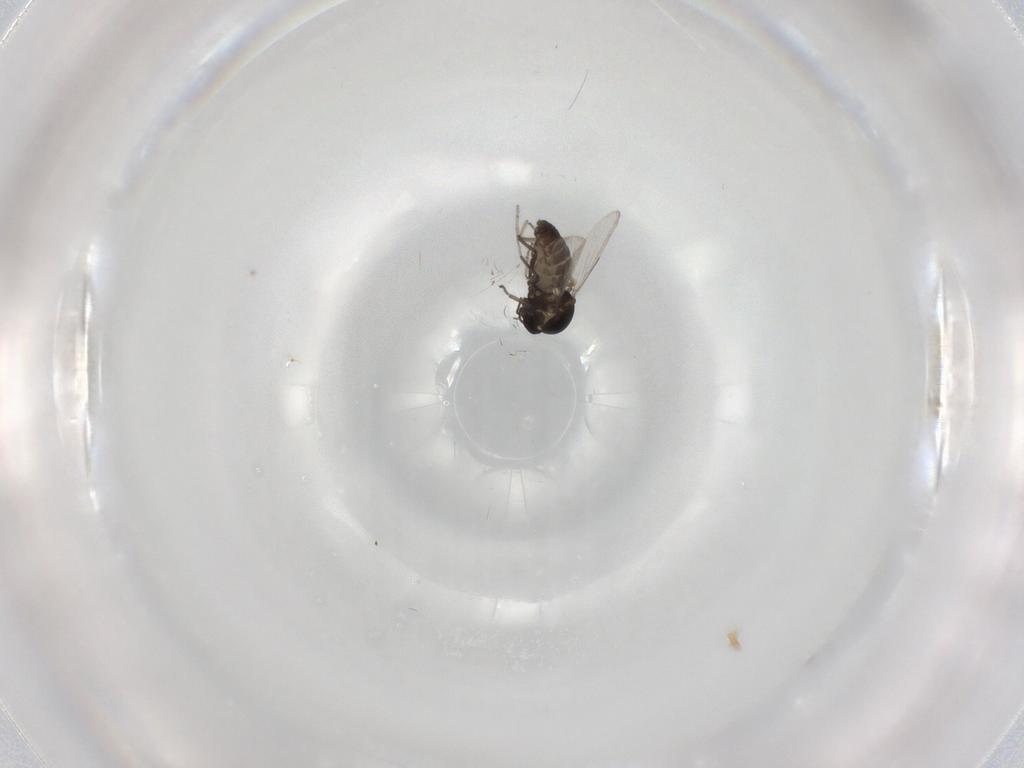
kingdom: Animalia
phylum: Arthropoda
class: Insecta
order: Diptera
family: Ceratopogonidae
